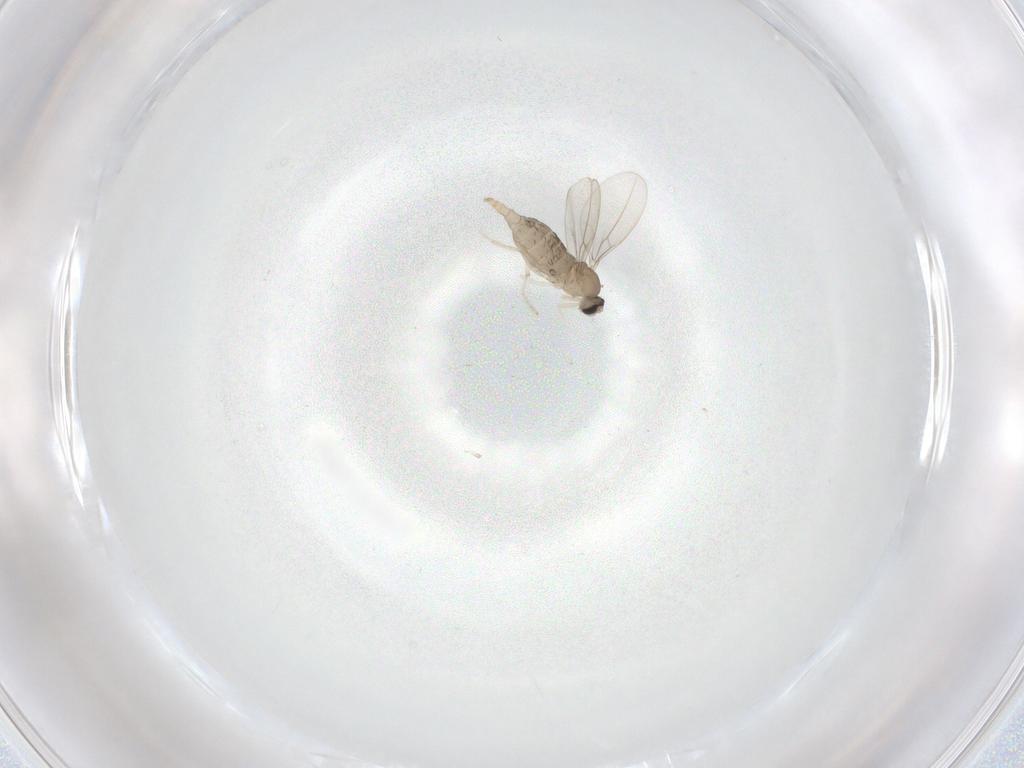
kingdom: Animalia
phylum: Arthropoda
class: Insecta
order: Diptera
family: Cecidomyiidae
